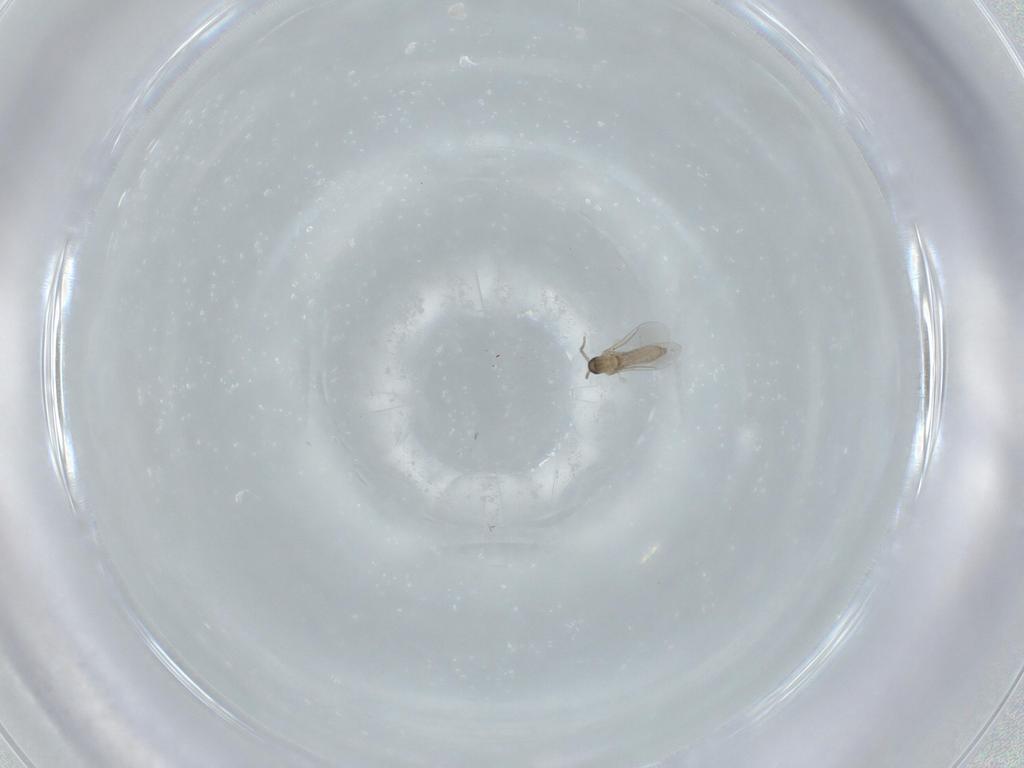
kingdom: Animalia
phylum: Arthropoda
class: Insecta
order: Diptera
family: Cecidomyiidae
